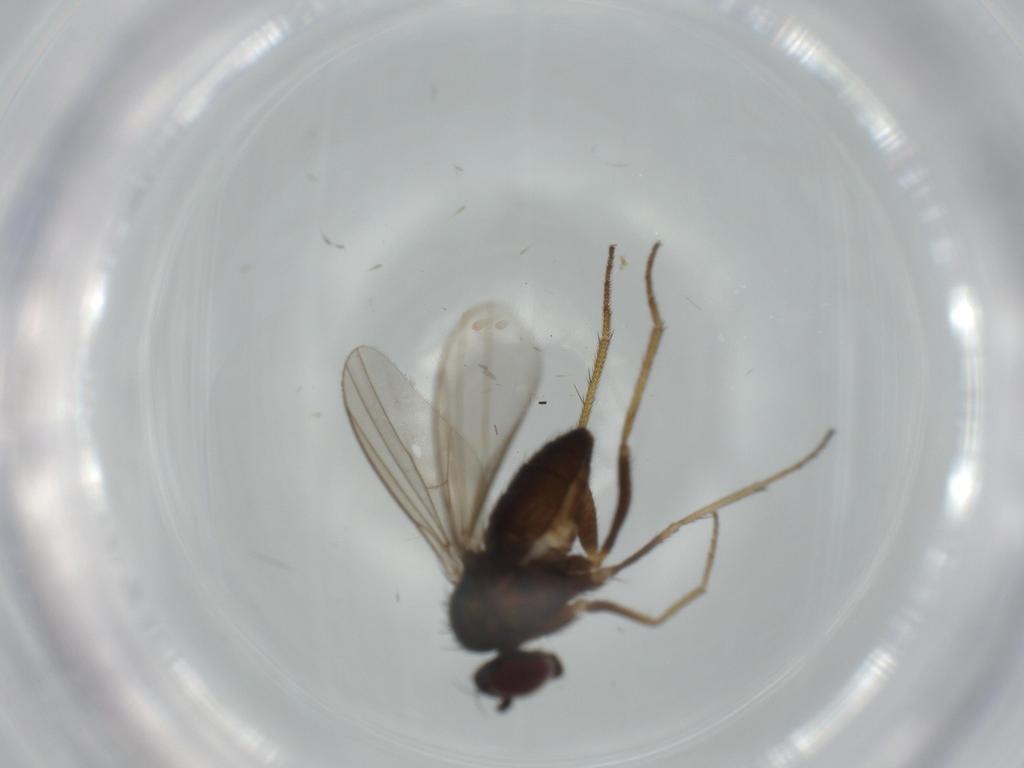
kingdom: Animalia
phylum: Arthropoda
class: Insecta
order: Diptera
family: Dolichopodidae
